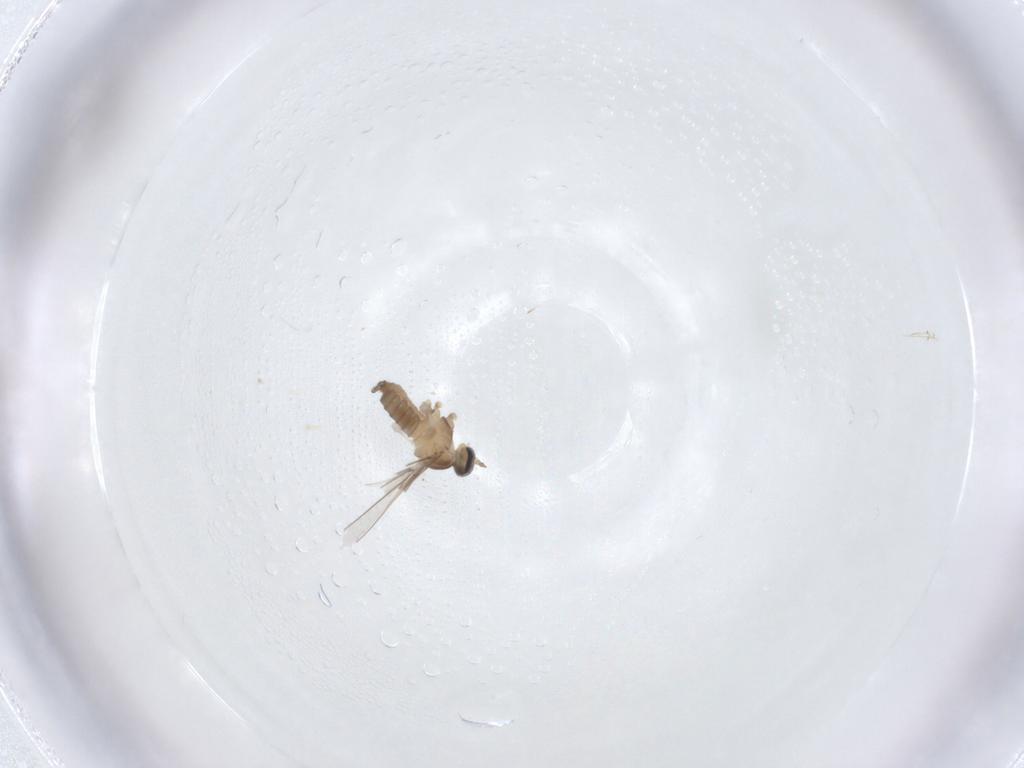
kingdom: Animalia
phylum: Arthropoda
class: Insecta
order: Diptera
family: Cecidomyiidae
